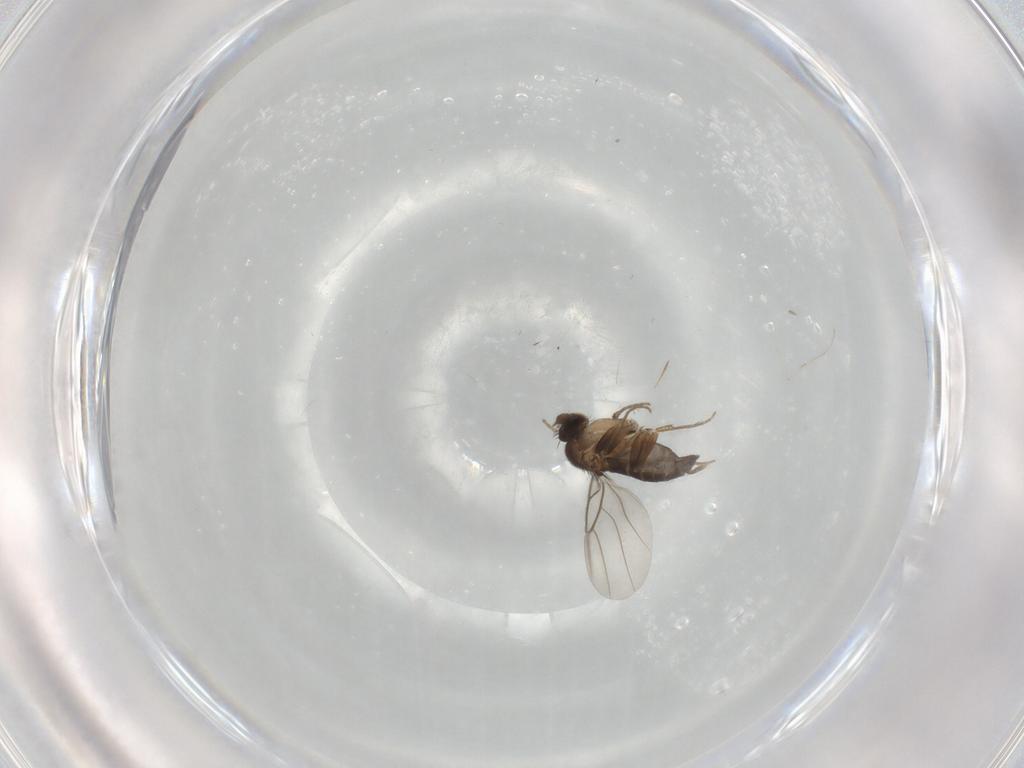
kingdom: Animalia
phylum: Arthropoda
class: Insecta
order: Diptera
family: Phoridae
